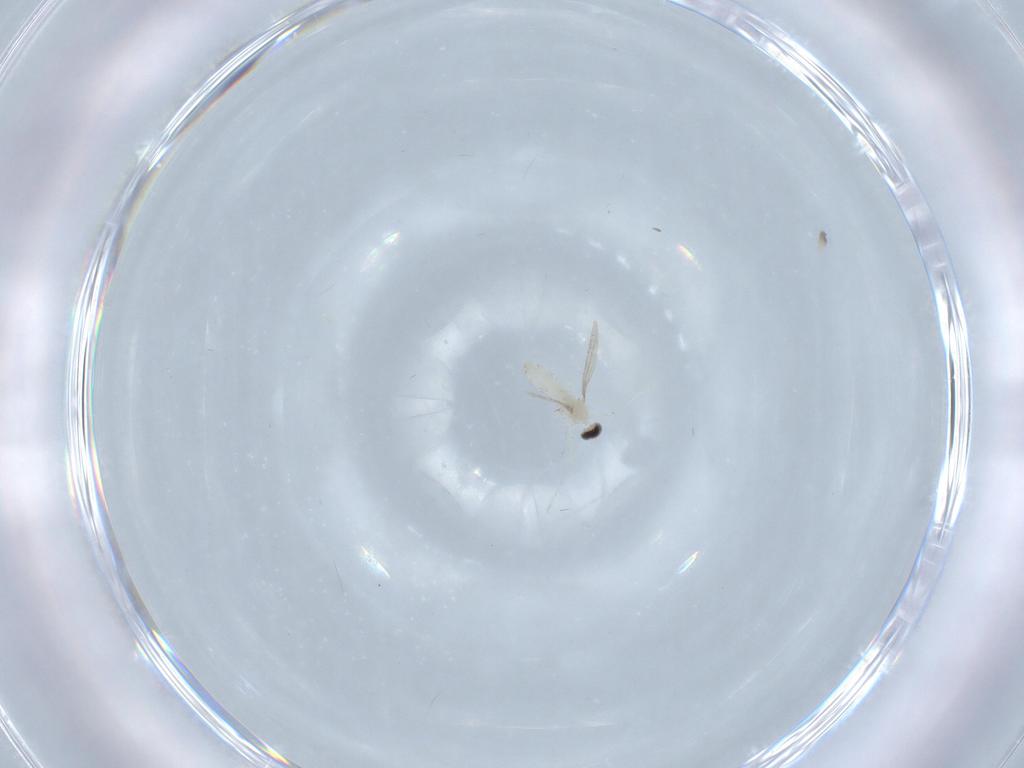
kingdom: Animalia
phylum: Arthropoda
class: Insecta
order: Diptera
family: Cecidomyiidae
